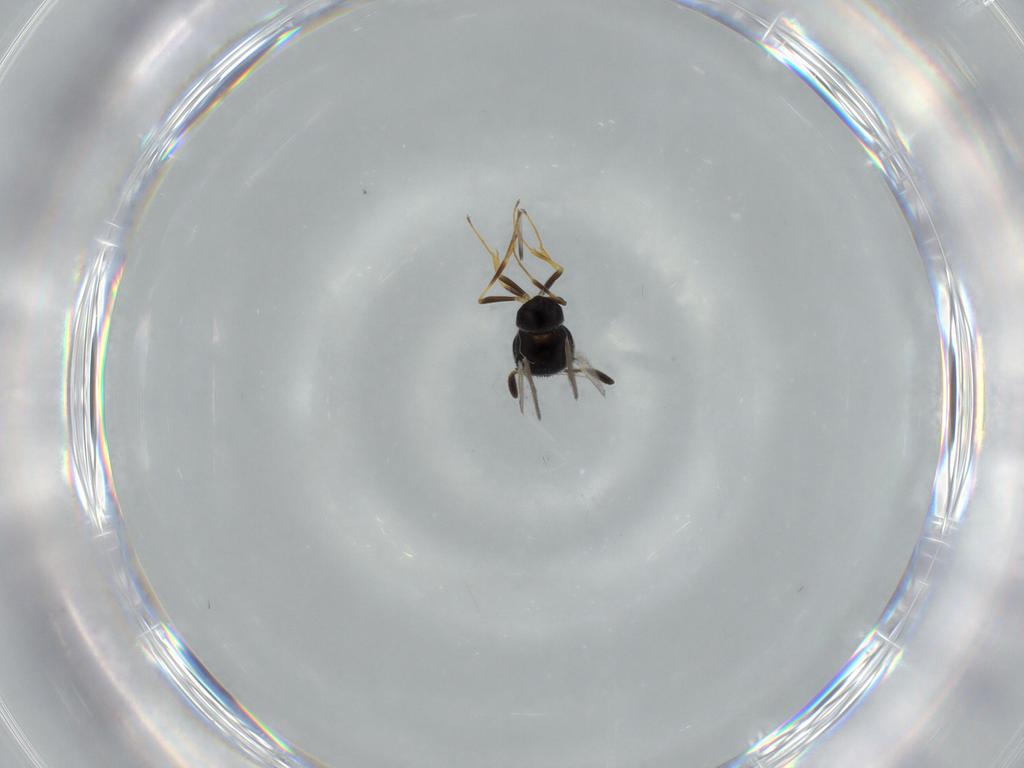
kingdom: Animalia
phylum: Arthropoda
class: Insecta
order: Hymenoptera
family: Scelionidae
